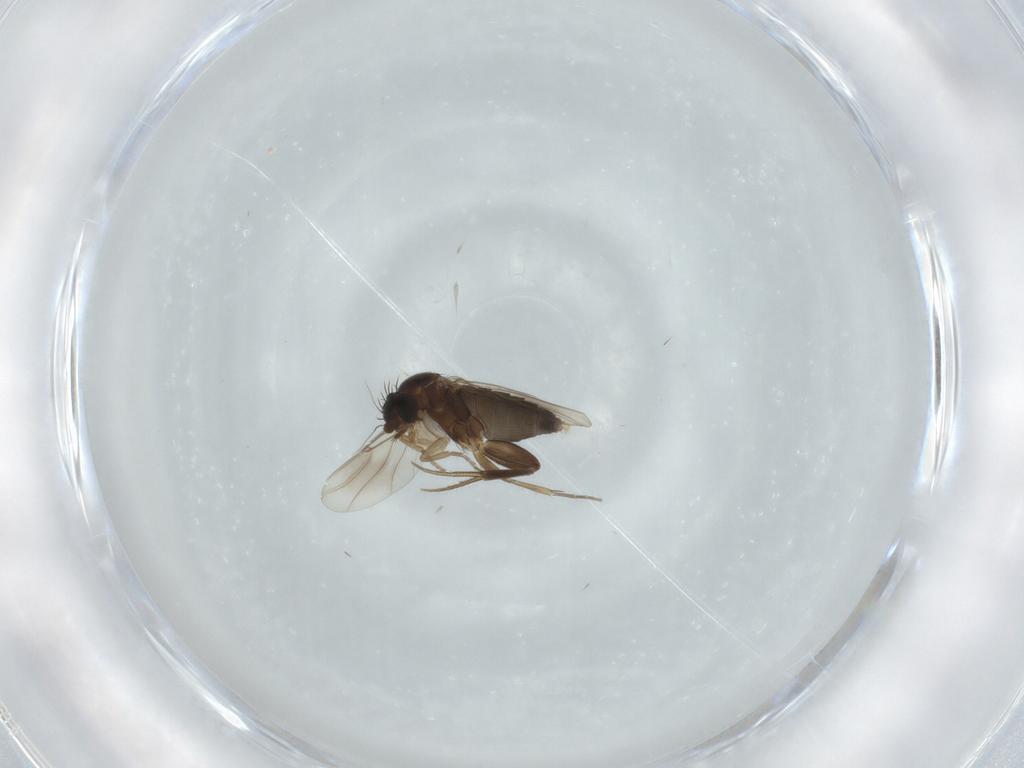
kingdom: Animalia
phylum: Arthropoda
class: Insecta
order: Diptera
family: Phoridae
